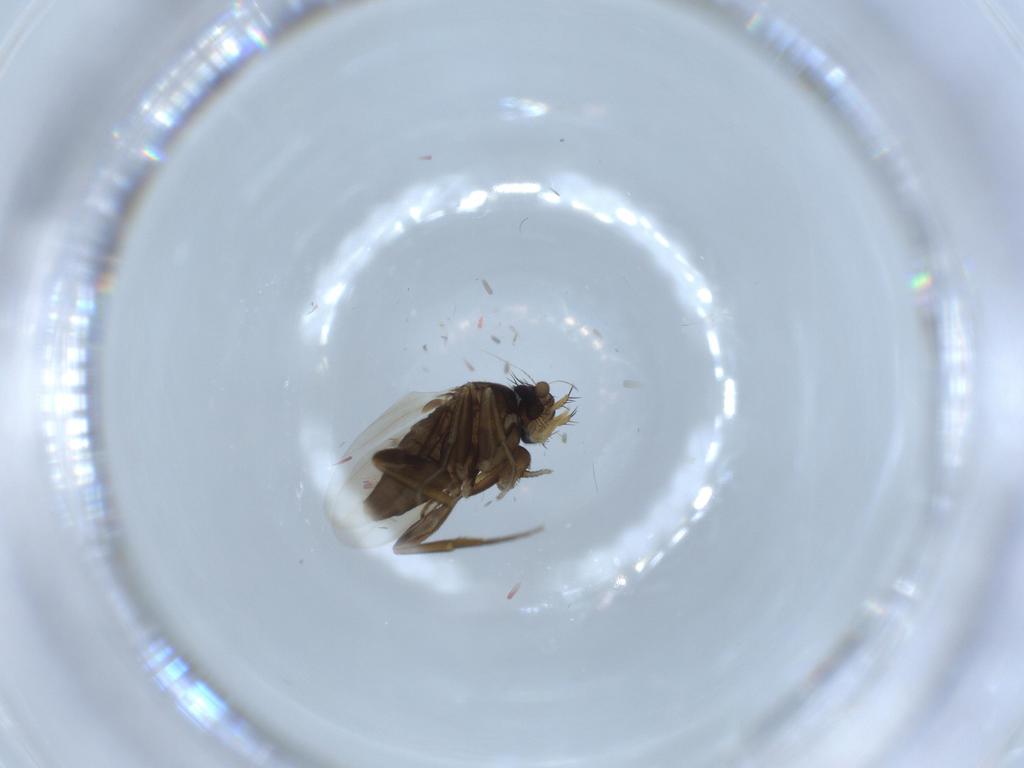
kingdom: Animalia
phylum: Arthropoda
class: Insecta
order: Diptera
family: Phoridae
